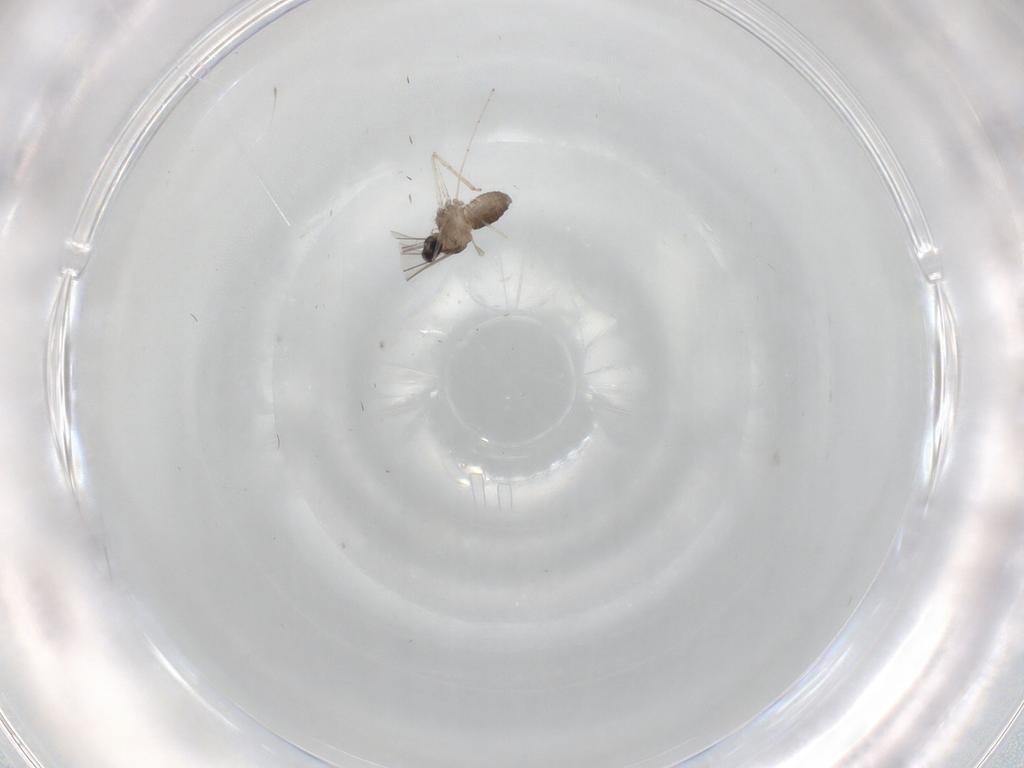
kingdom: Animalia
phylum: Arthropoda
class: Insecta
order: Diptera
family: Cecidomyiidae
